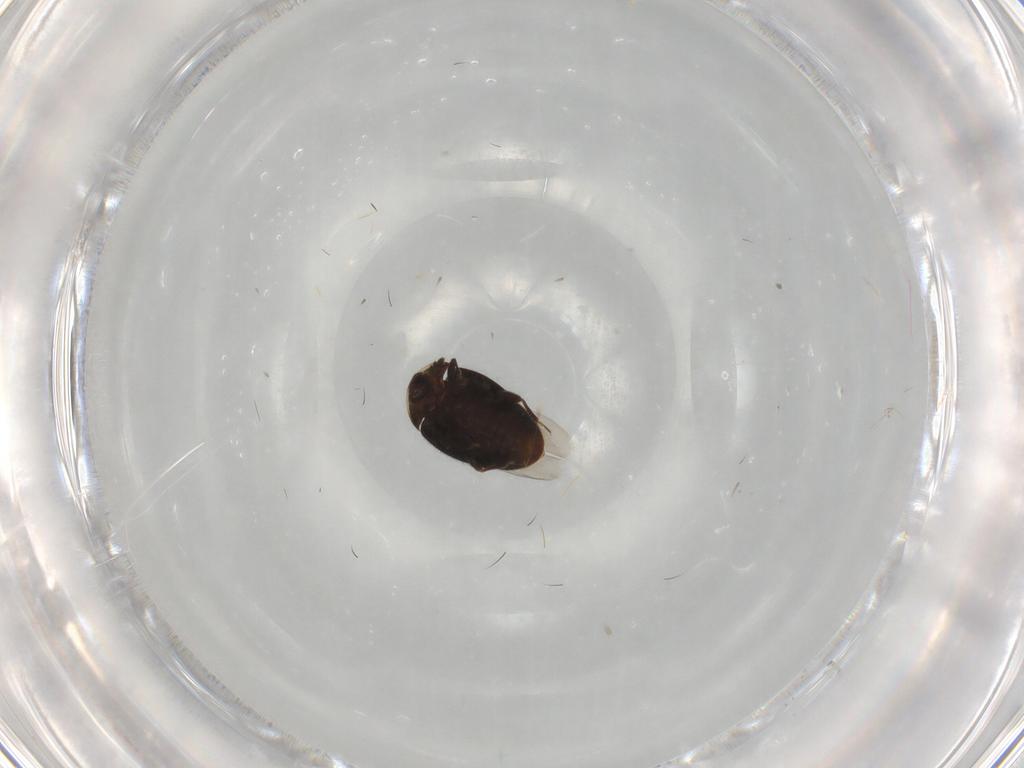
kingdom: Animalia
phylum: Arthropoda
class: Insecta
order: Coleoptera
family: Corylophidae
